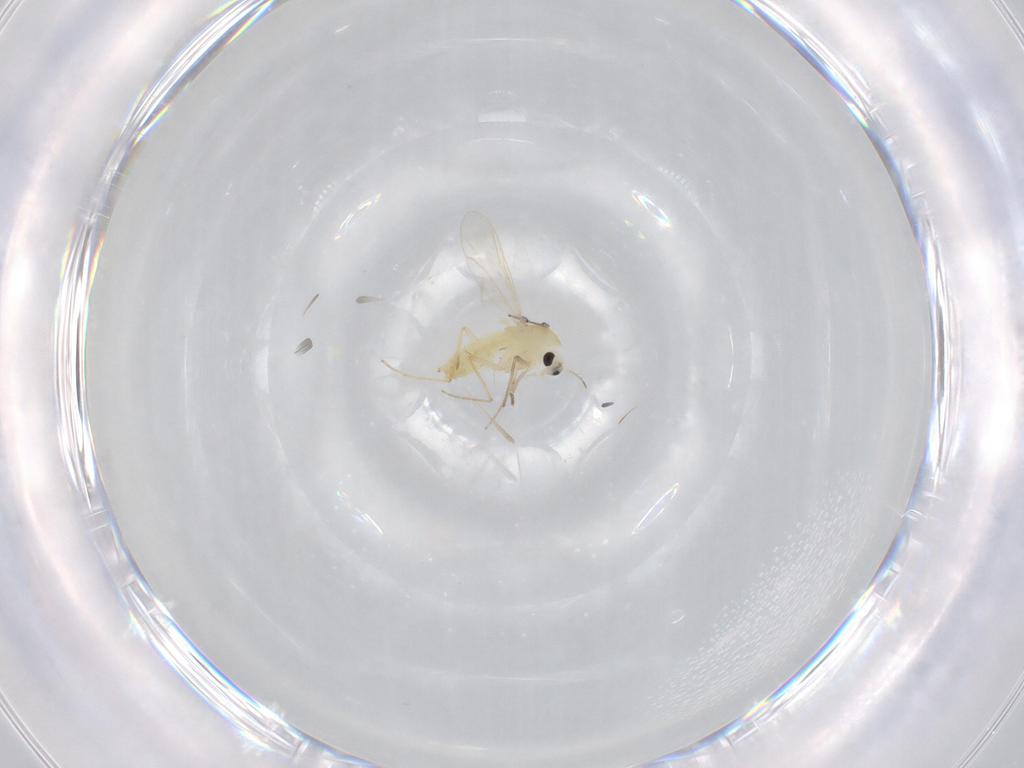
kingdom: Animalia
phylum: Arthropoda
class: Insecta
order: Diptera
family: Chironomidae
